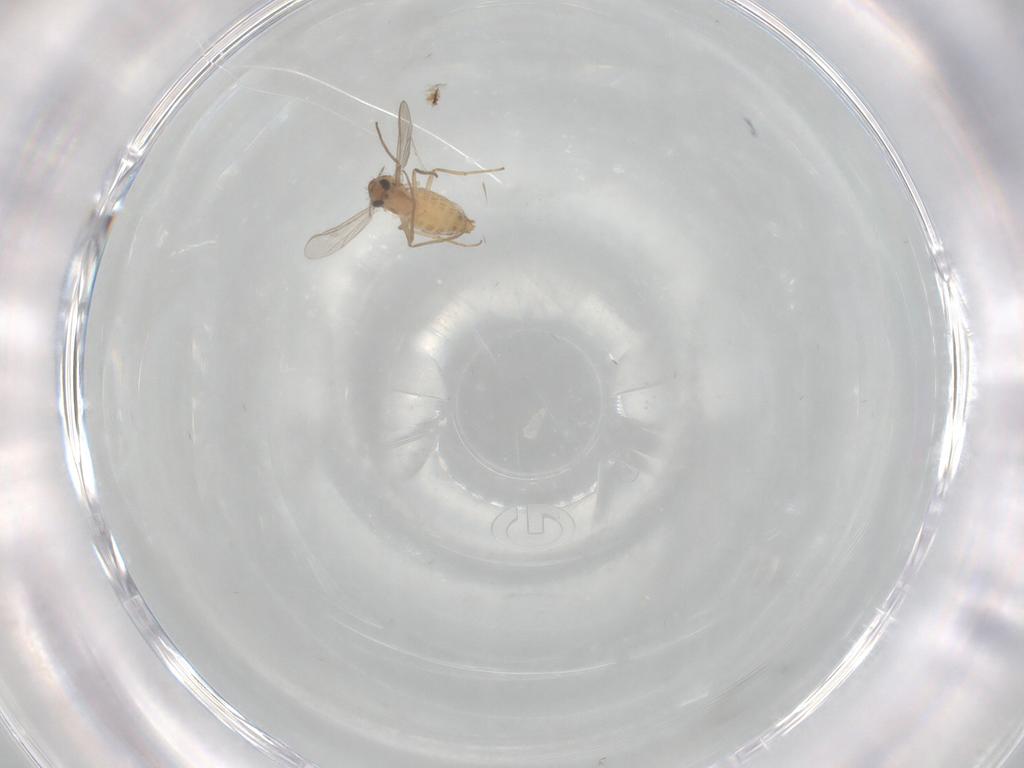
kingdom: Animalia
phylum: Arthropoda
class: Insecta
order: Diptera
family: Chironomidae
